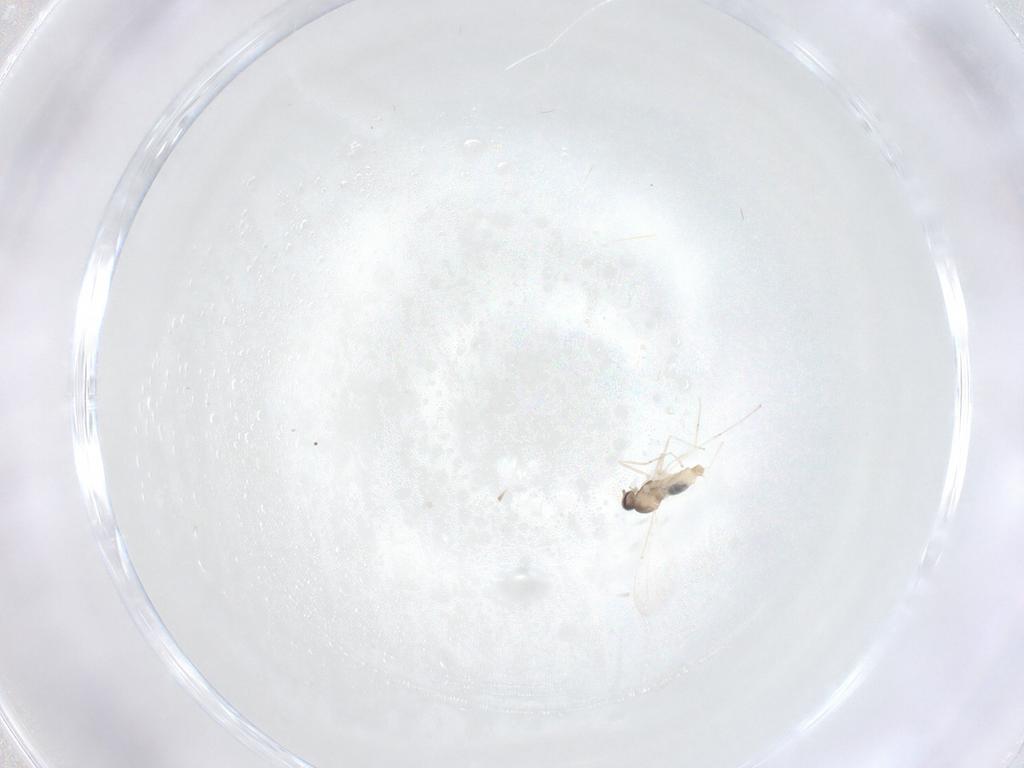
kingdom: Animalia
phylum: Arthropoda
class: Insecta
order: Diptera
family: Cecidomyiidae
